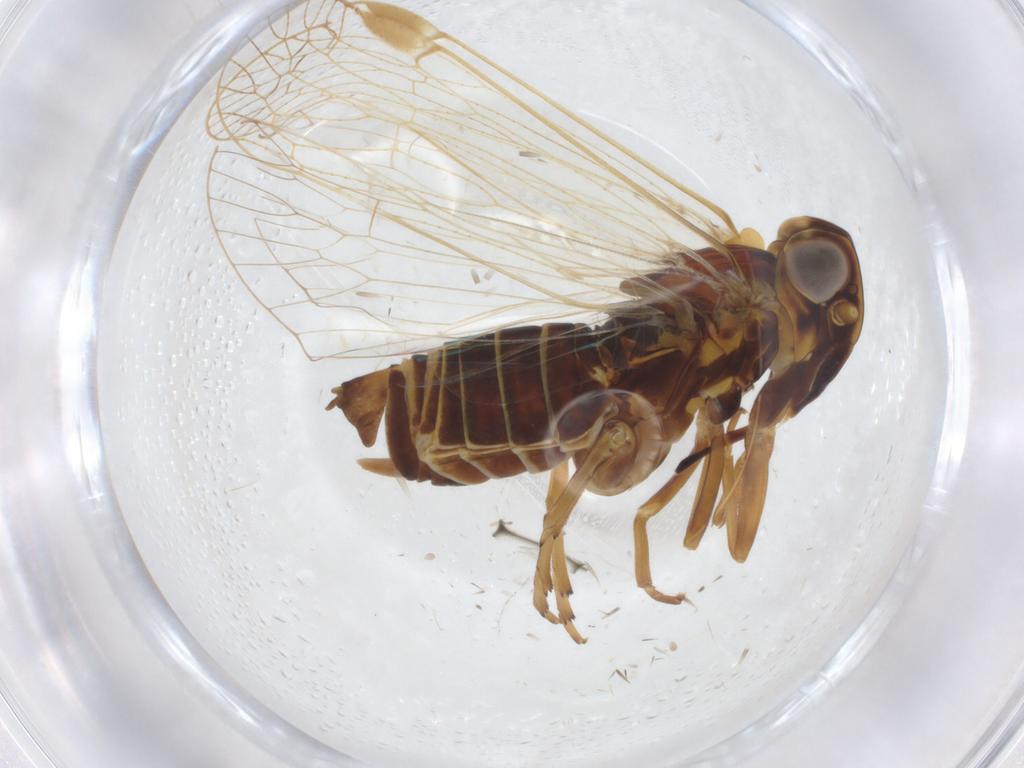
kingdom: Animalia
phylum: Arthropoda
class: Insecta
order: Hemiptera
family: Cixiidae
